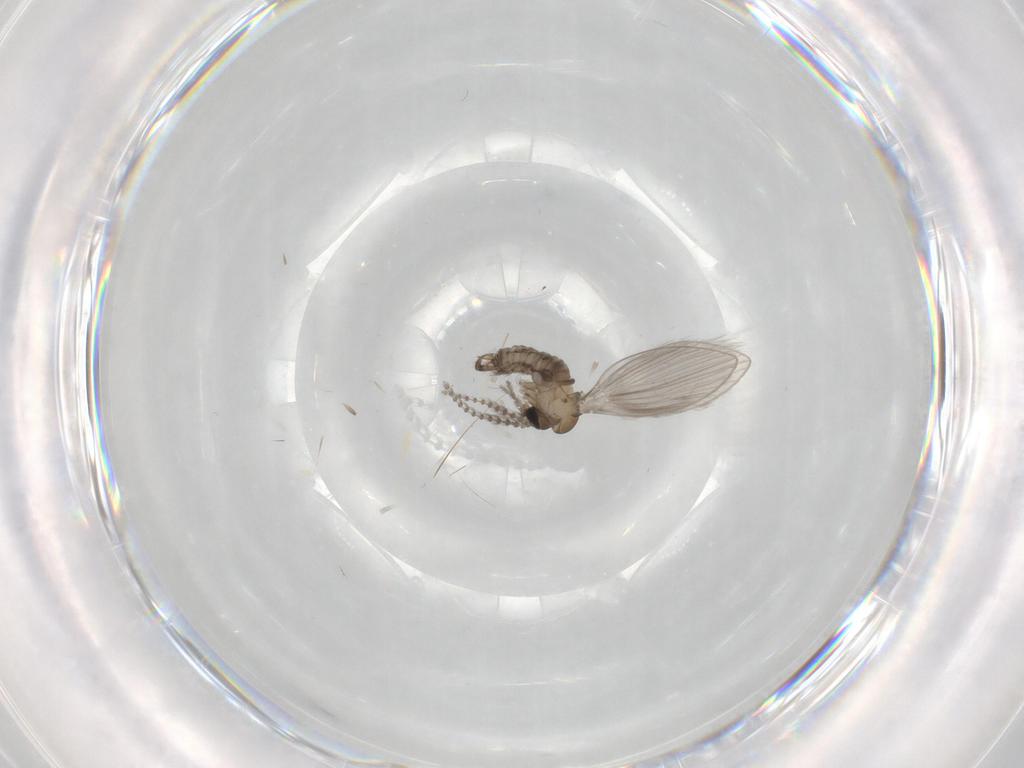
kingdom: Animalia
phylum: Arthropoda
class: Insecta
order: Diptera
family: Psychodidae
